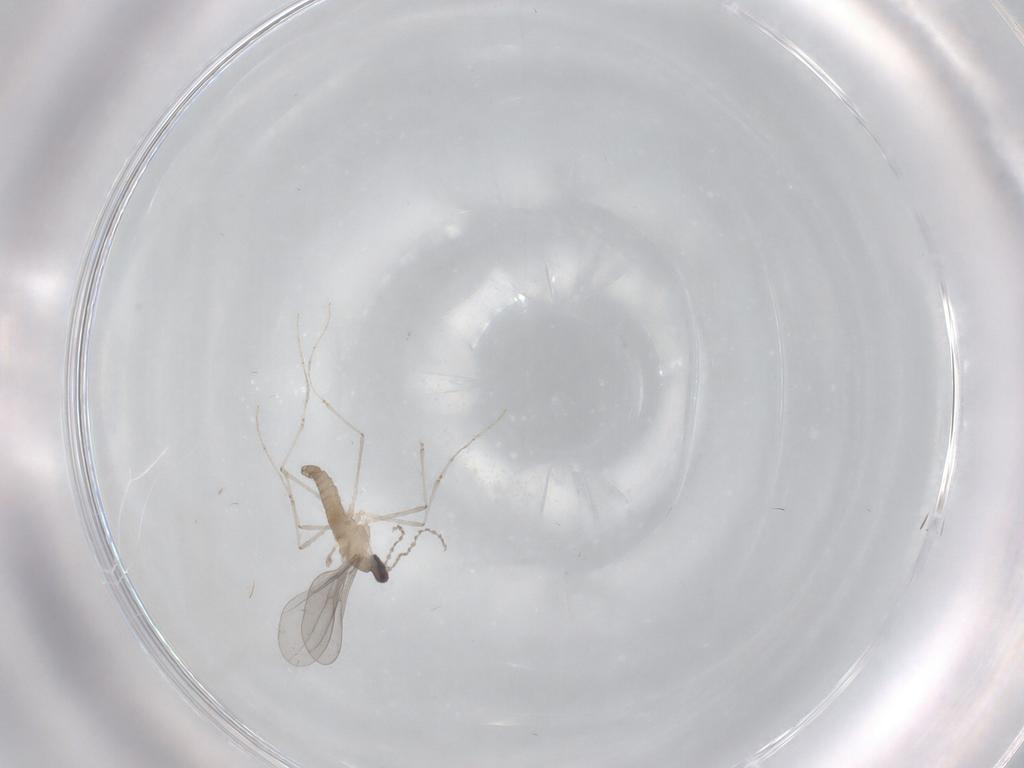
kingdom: Animalia
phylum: Arthropoda
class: Insecta
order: Diptera
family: Cecidomyiidae
